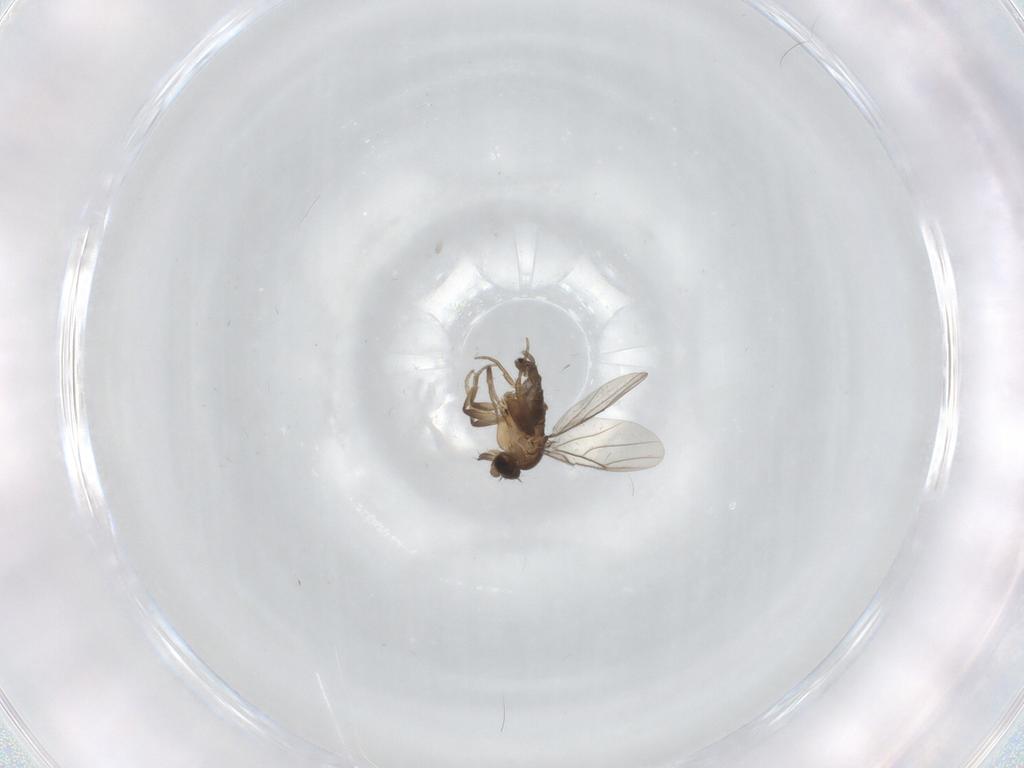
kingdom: Animalia
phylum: Arthropoda
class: Insecta
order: Diptera
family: Phoridae
